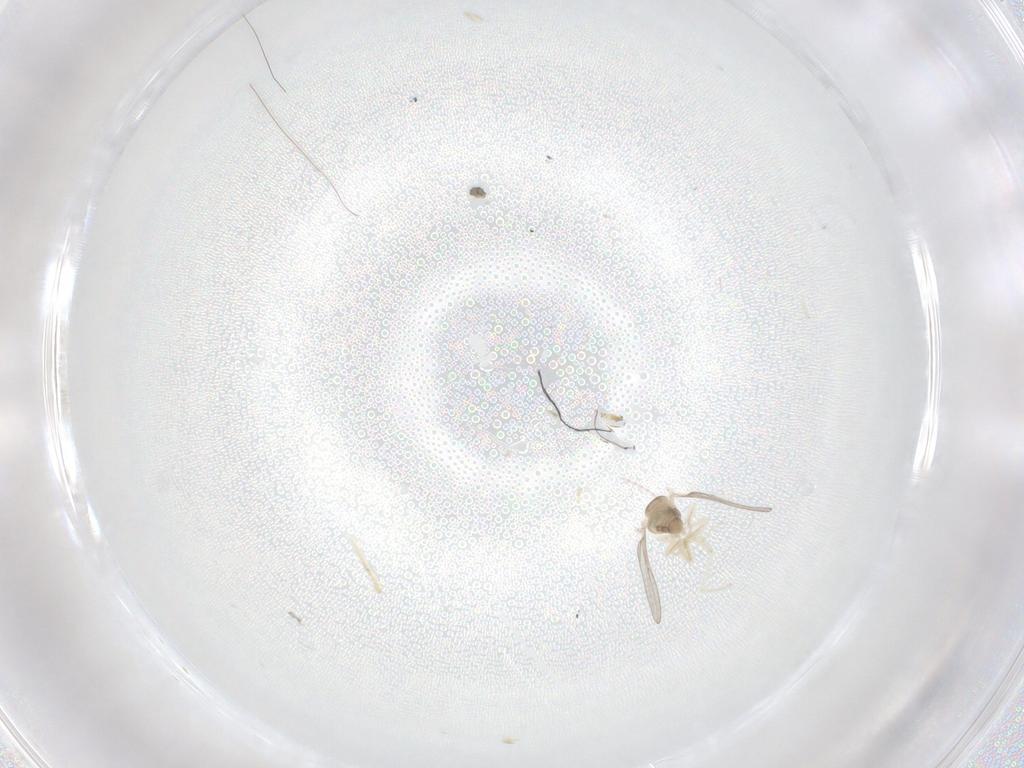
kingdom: Animalia
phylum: Arthropoda
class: Insecta
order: Diptera
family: Cecidomyiidae
